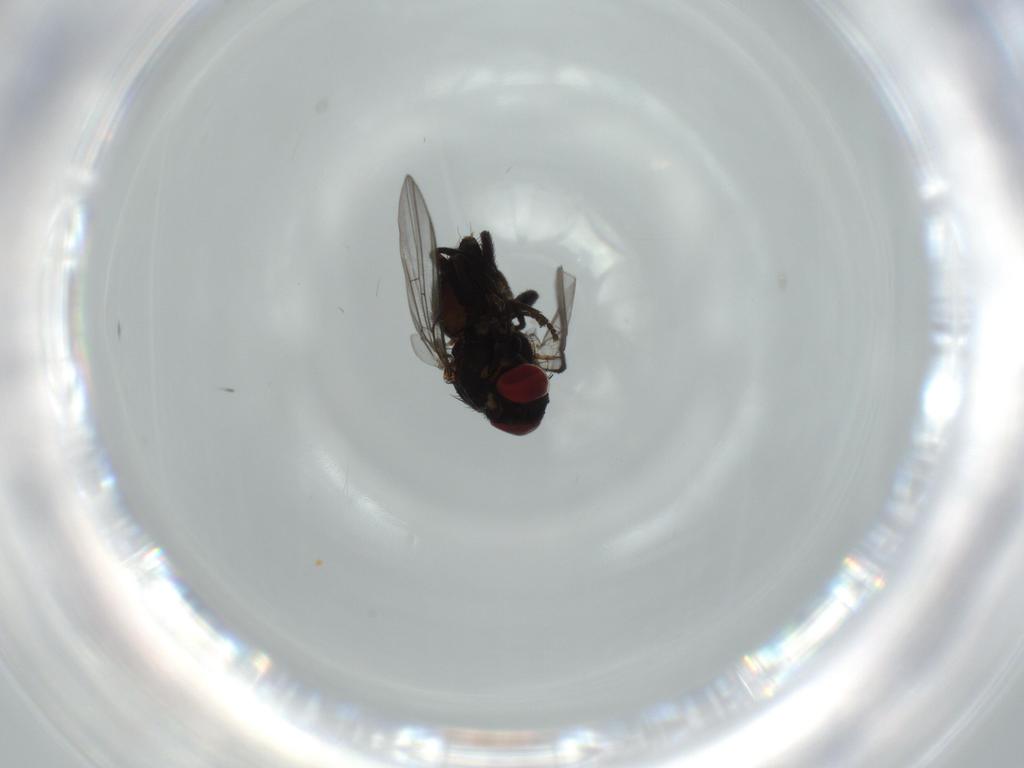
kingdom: Animalia
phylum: Arthropoda
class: Insecta
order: Diptera
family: Agromyzidae
